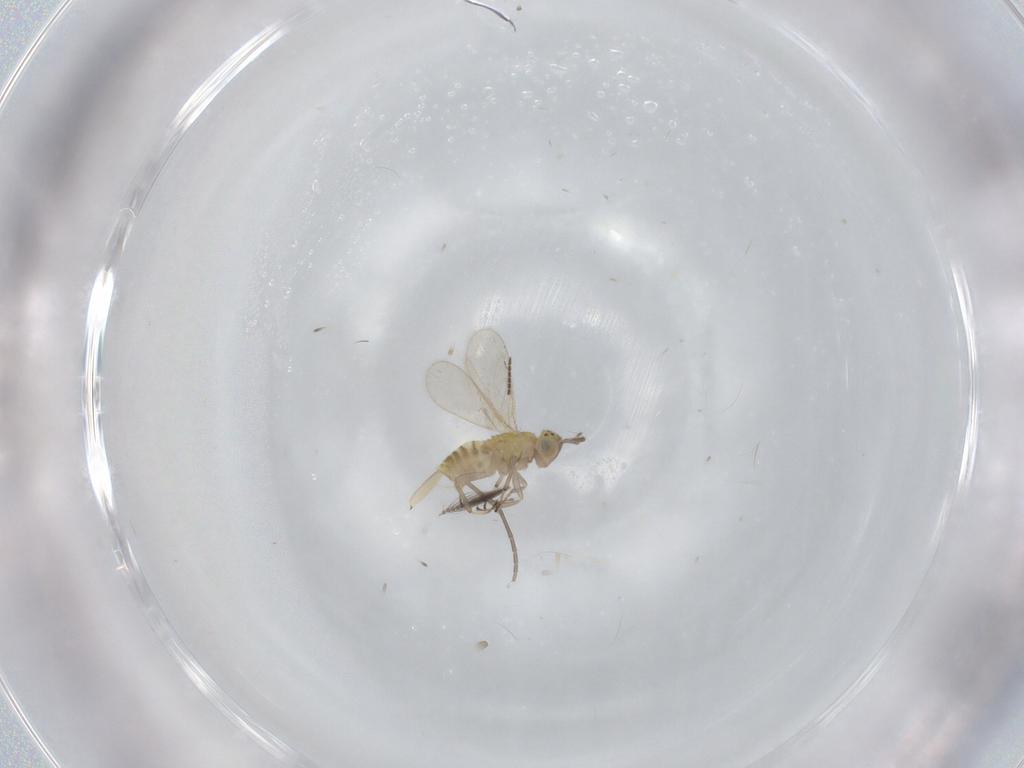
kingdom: Animalia
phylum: Arthropoda
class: Insecta
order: Hymenoptera
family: Aphelinidae
